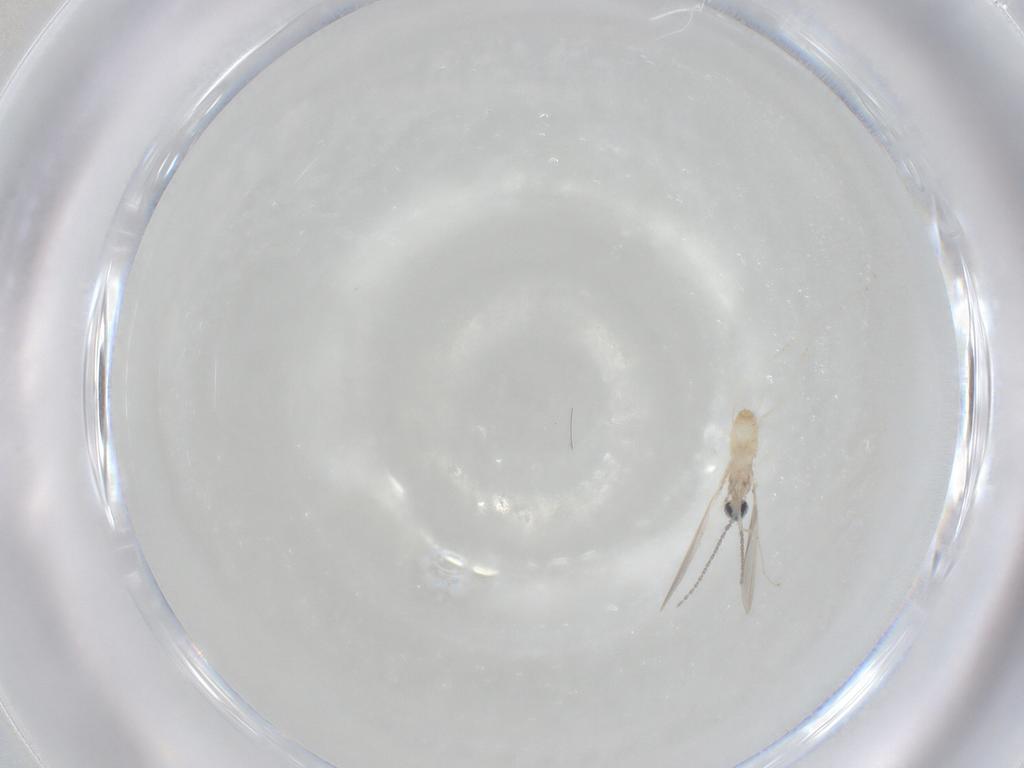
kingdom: Animalia
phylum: Arthropoda
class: Insecta
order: Diptera
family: Cecidomyiidae
